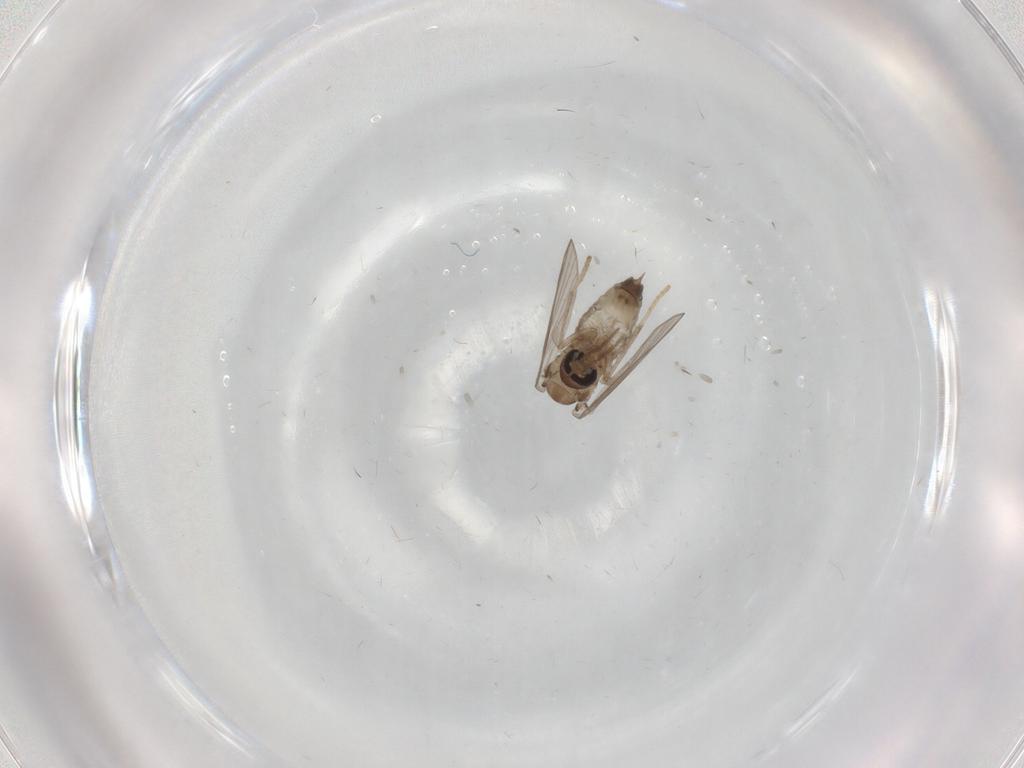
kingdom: Animalia
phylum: Arthropoda
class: Insecta
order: Diptera
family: Psychodidae
